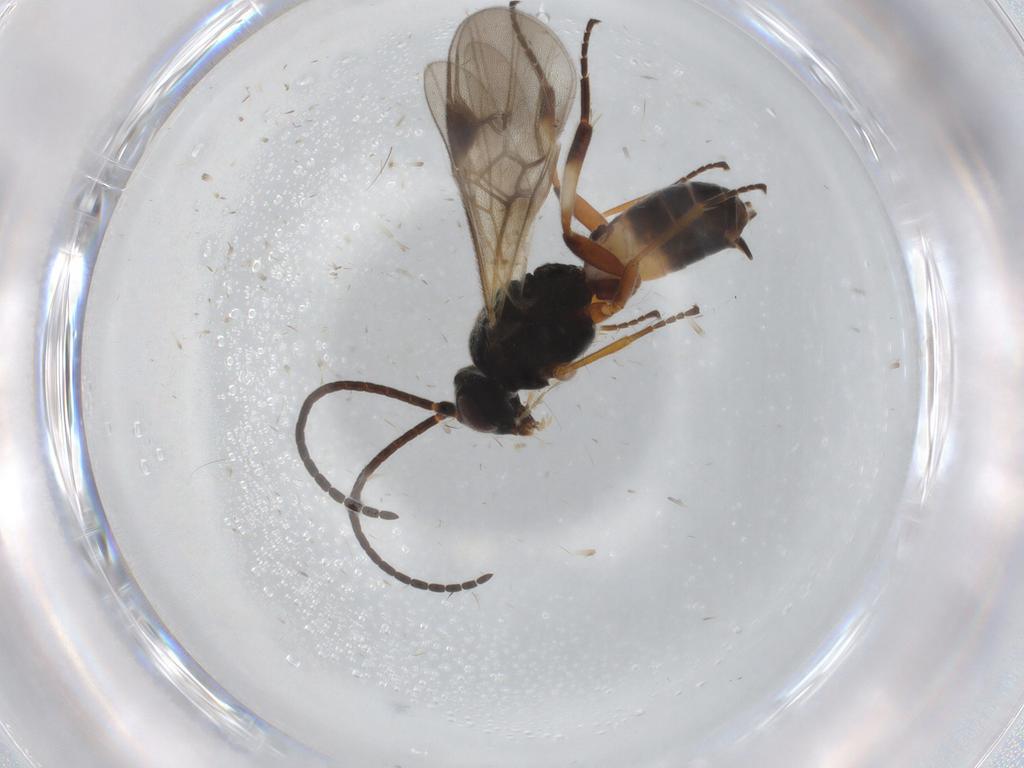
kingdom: Animalia
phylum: Arthropoda
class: Insecta
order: Hymenoptera
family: Braconidae
